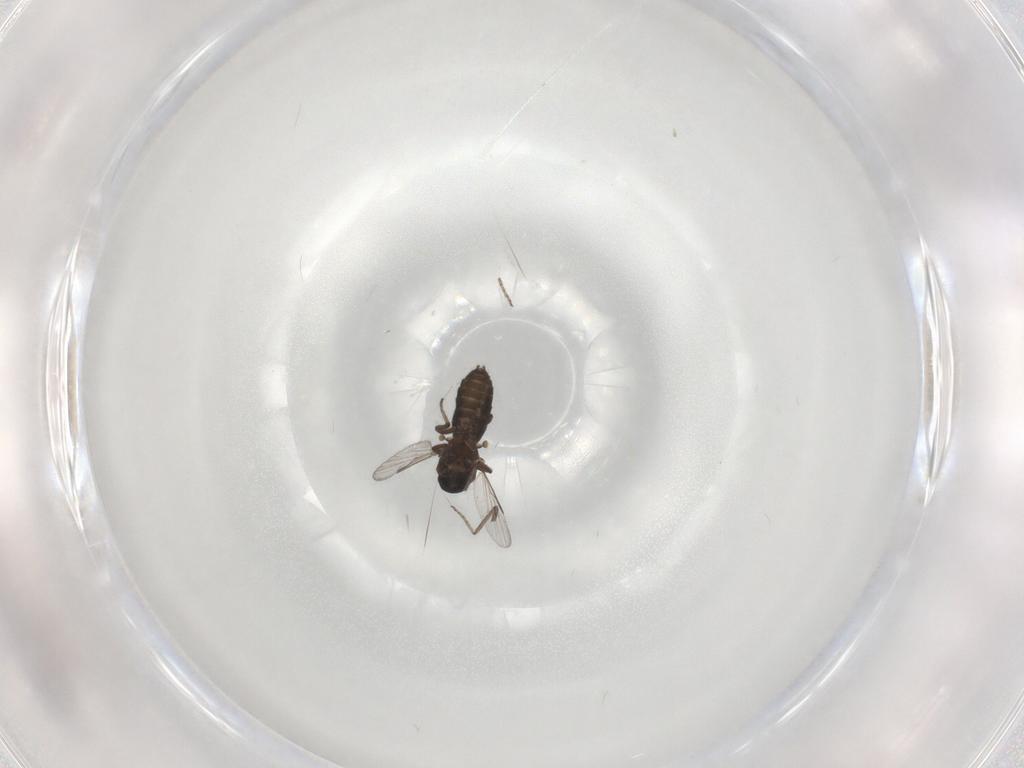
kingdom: Animalia
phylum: Arthropoda
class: Insecta
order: Diptera
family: Ceratopogonidae
